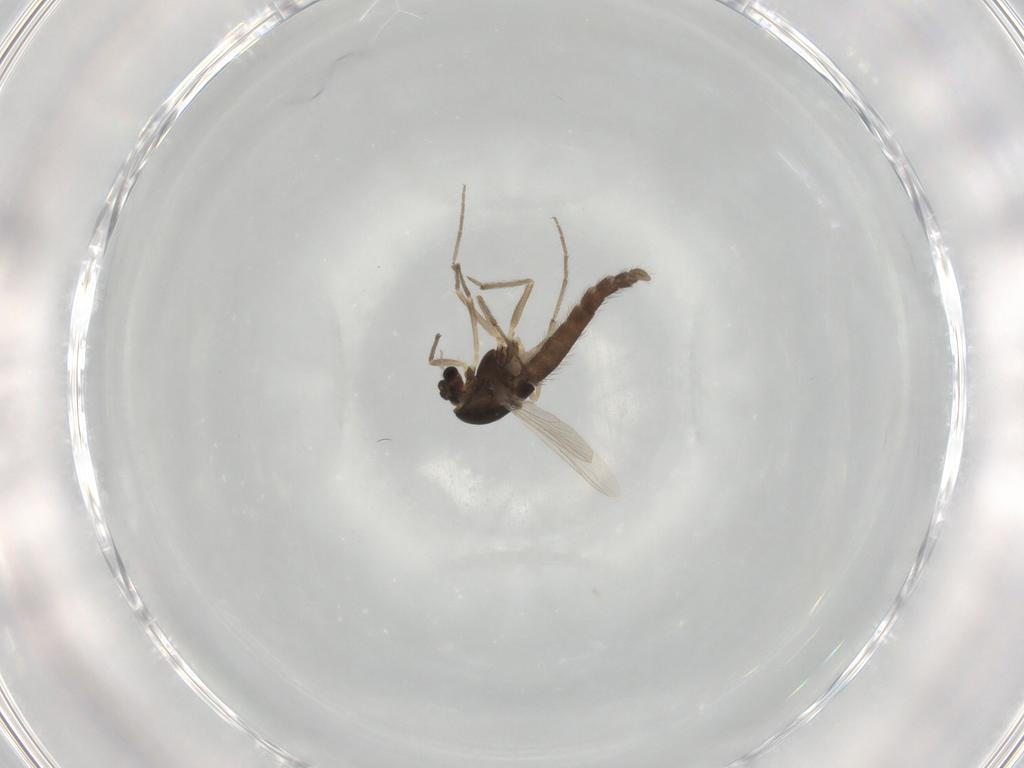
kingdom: Animalia
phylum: Arthropoda
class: Insecta
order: Diptera
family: Chironomidae
